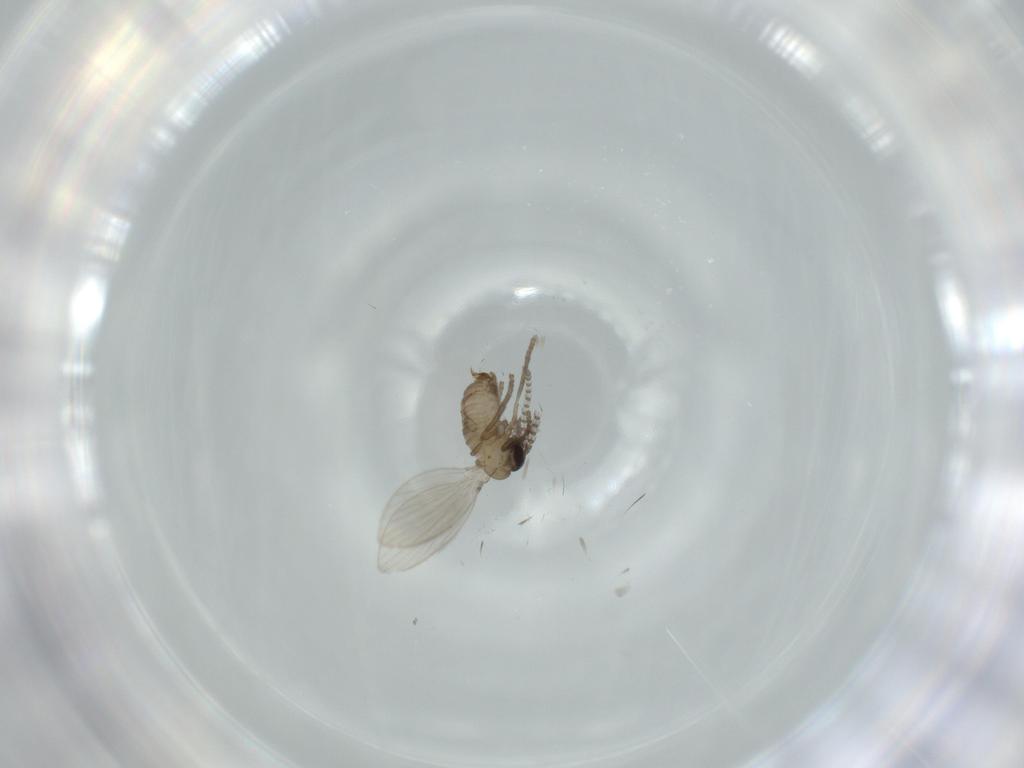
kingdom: Animalia
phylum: Arthropoda
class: Insecta
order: Diptera
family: Psychodidae
